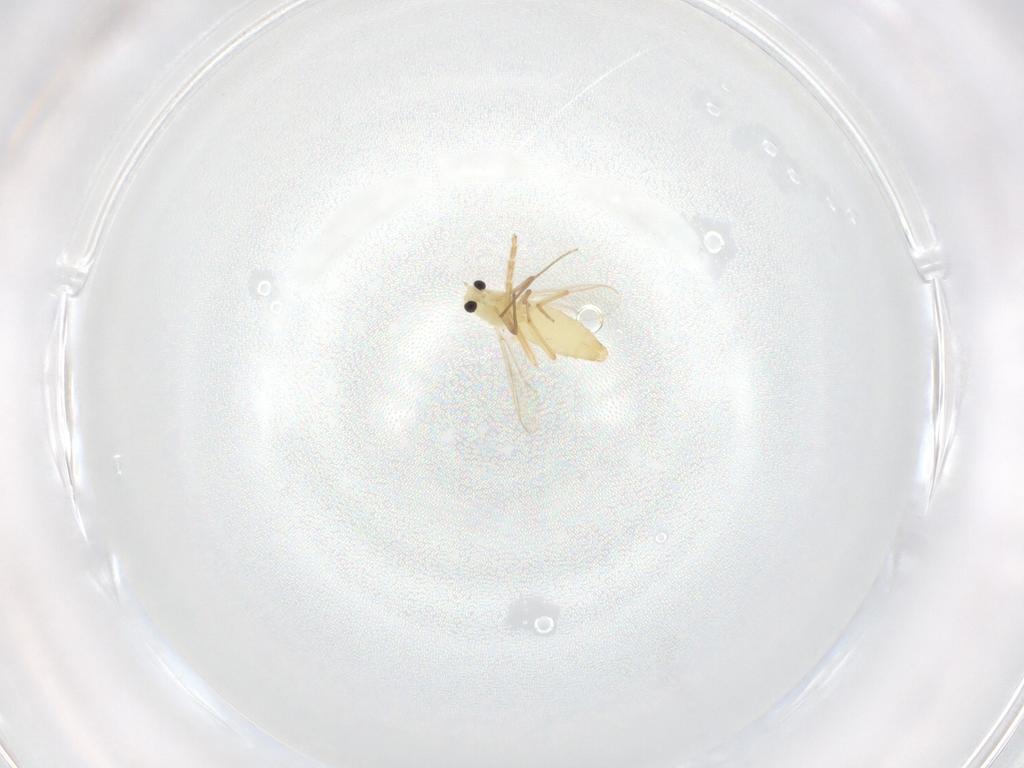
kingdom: Animalia
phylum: Arthropoda
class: Insecta
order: Diptera
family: Chironomidae
